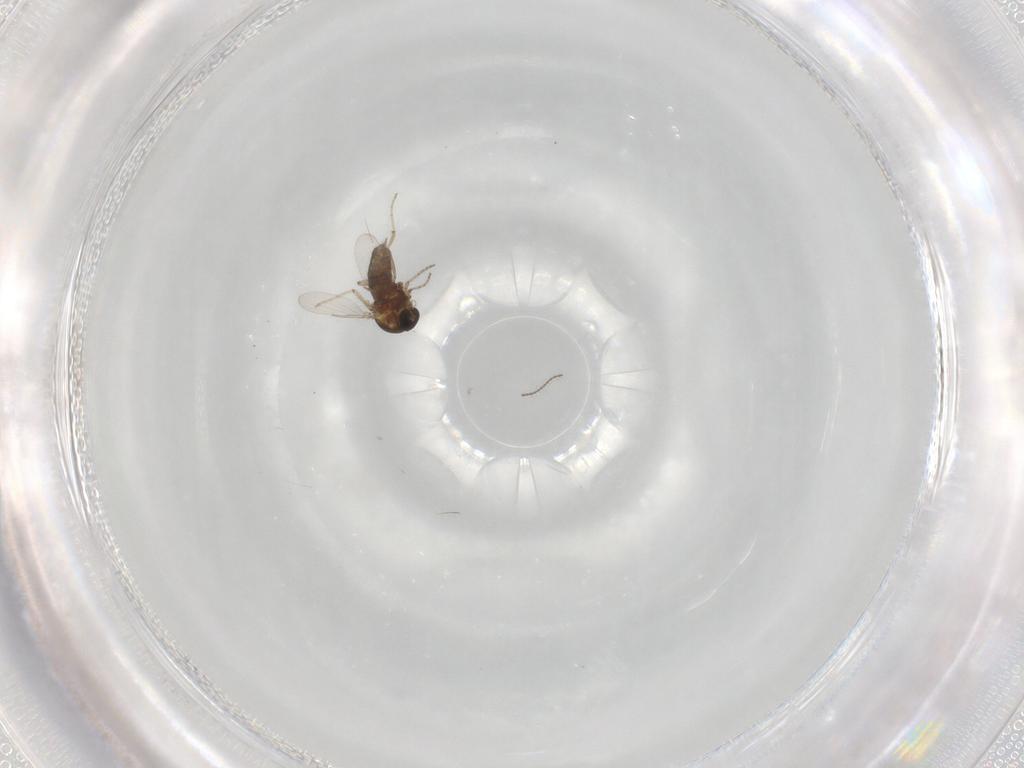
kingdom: Animalia
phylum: Arthropoda
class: Insecta
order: Diptera
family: Ceratopogonidae
